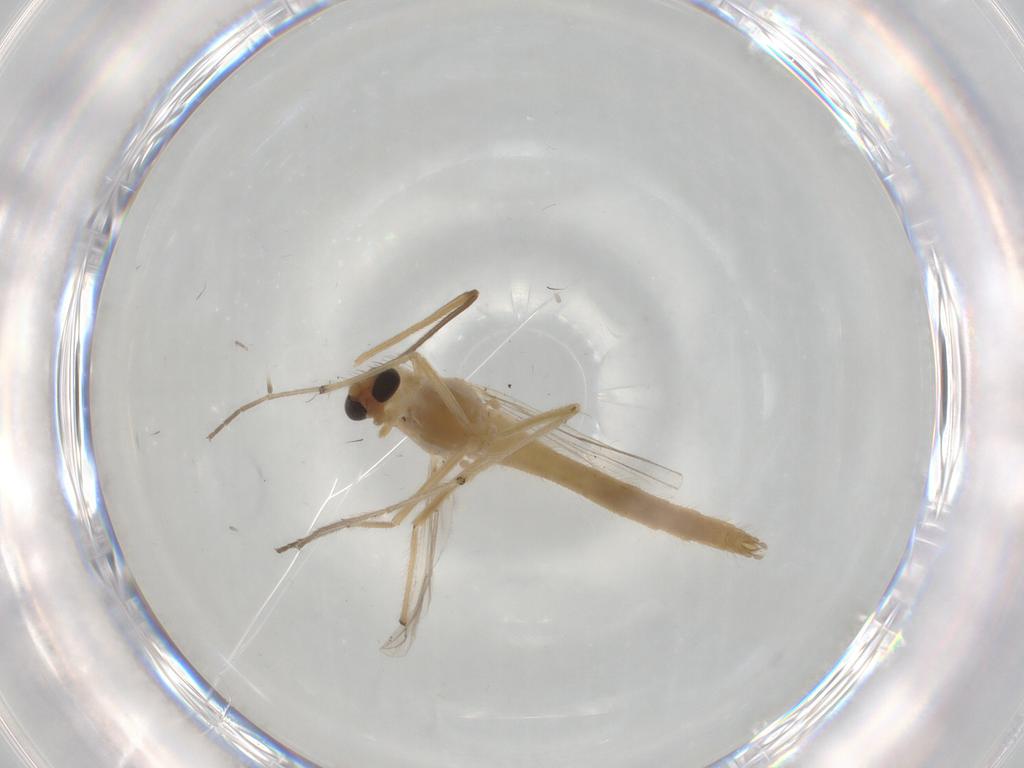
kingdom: Animalia
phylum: Arthropoda
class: Insecta
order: Diptera
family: Chironomidae
